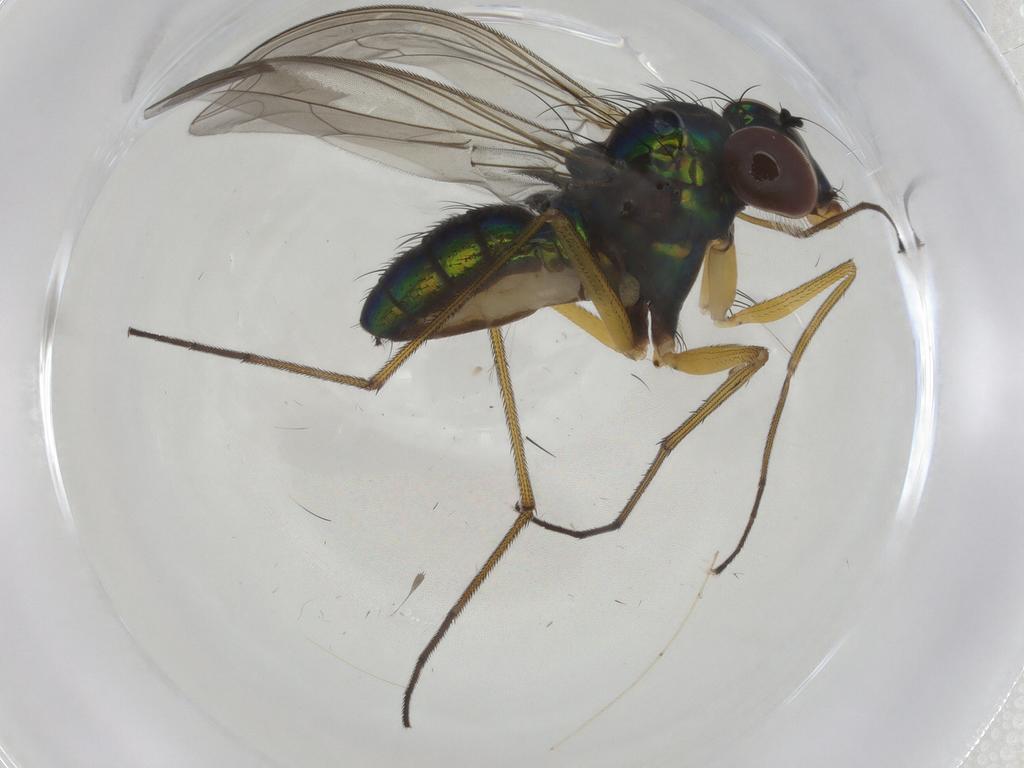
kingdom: Animalia
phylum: Arthropoda
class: Insecta
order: Diptera
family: Dolichopodidae
